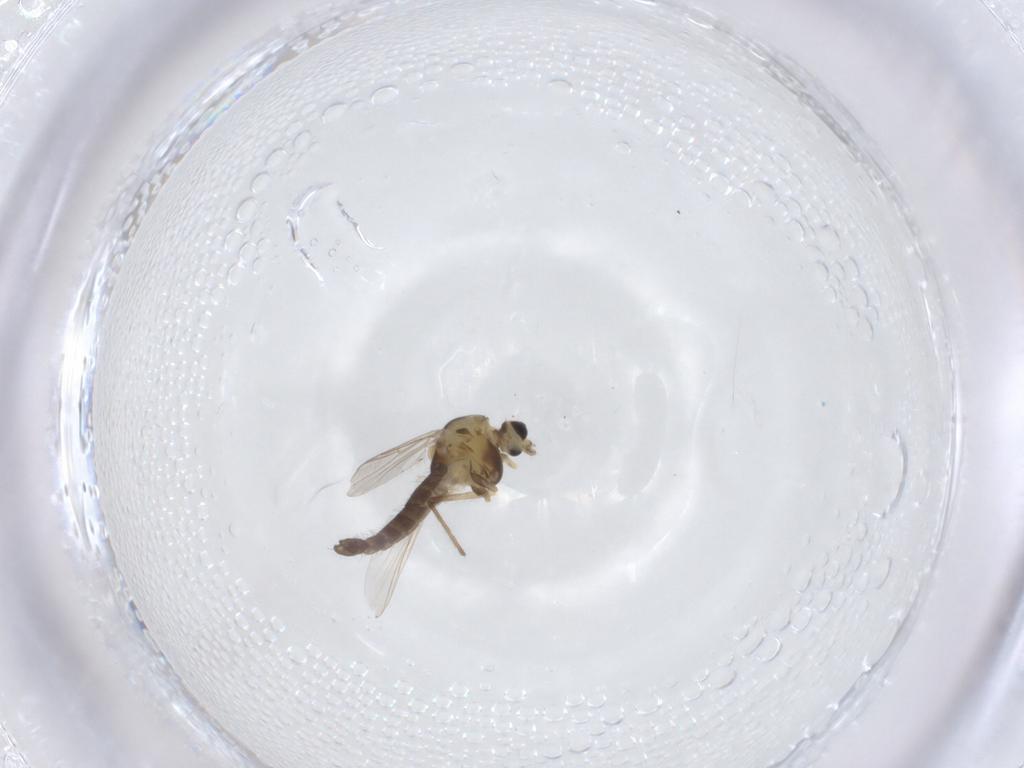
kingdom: Animalia
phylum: Arthropoda
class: Insecta
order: Diptera
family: Chironomidae
